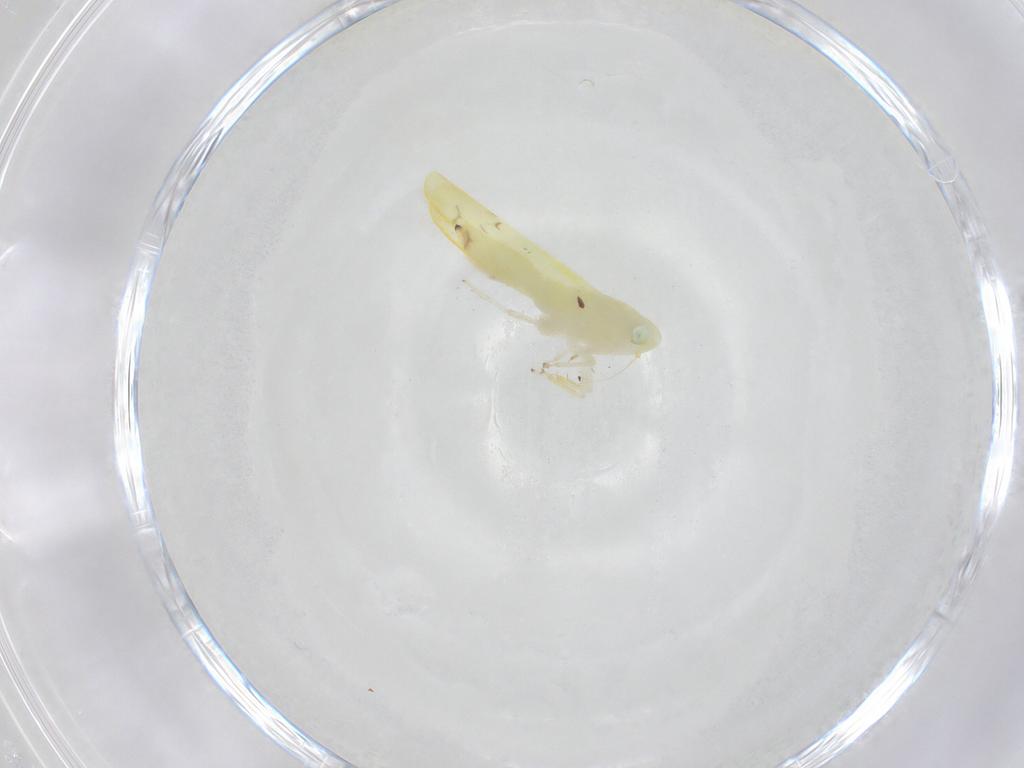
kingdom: Animalia
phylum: Arthropoda
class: Insecta
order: Hemiptera
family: Cicadellidae
